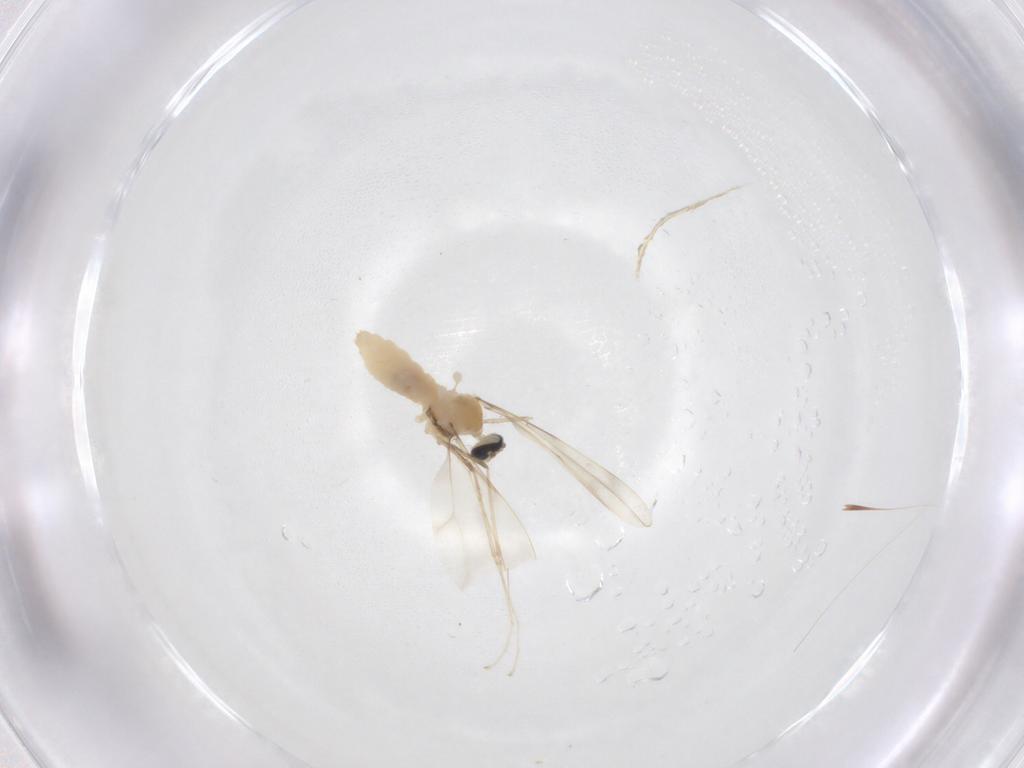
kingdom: Animalia
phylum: Arthropoda
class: Insecta
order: Diptera
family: Cecidomyiidae
